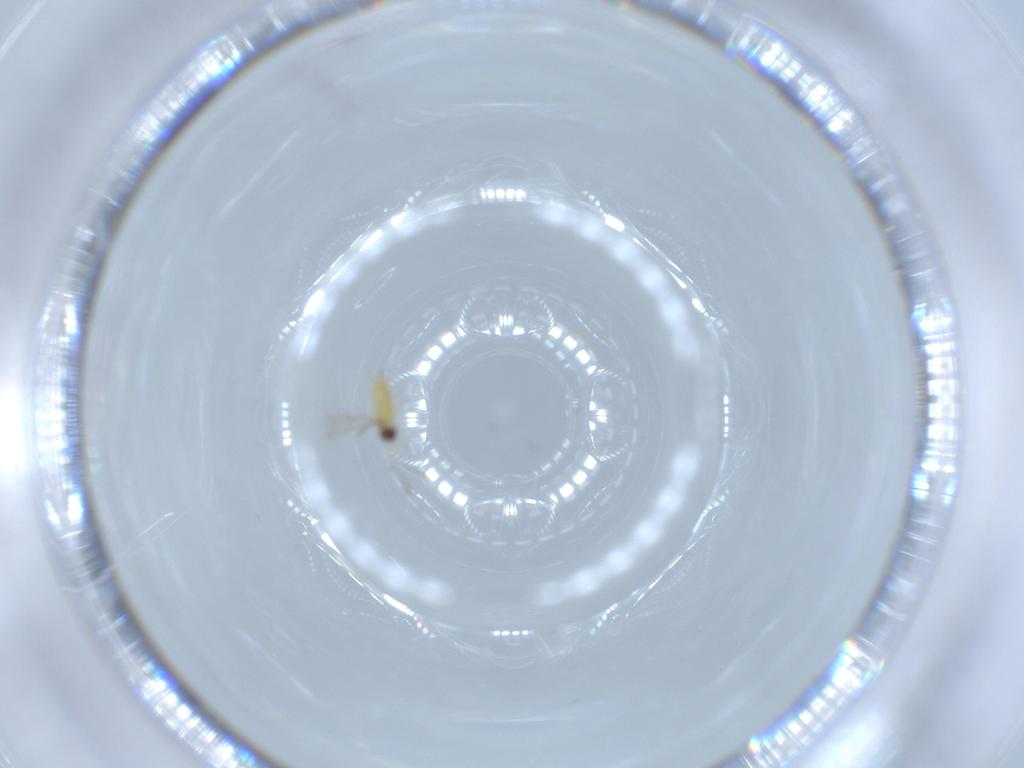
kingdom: Animalia
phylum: Arthropoda
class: Insecta
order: Hymenoptera
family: Mymaridae
